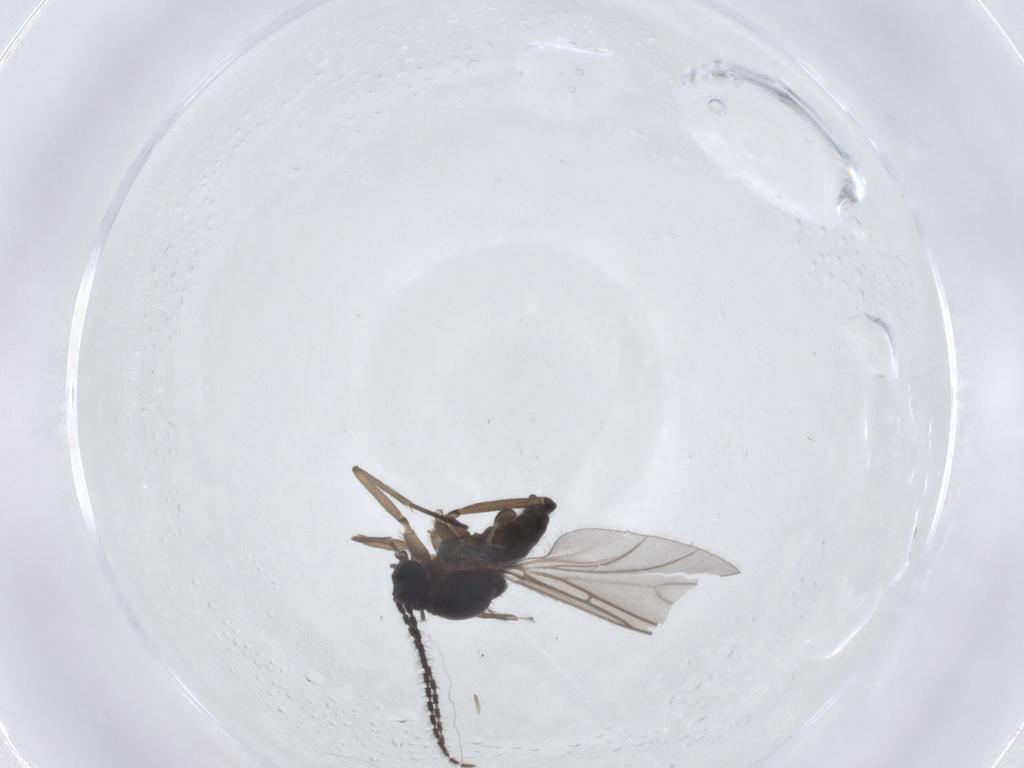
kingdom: Animalia
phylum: Arthropoda
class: Insecta
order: Diptera
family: Sciaridae
